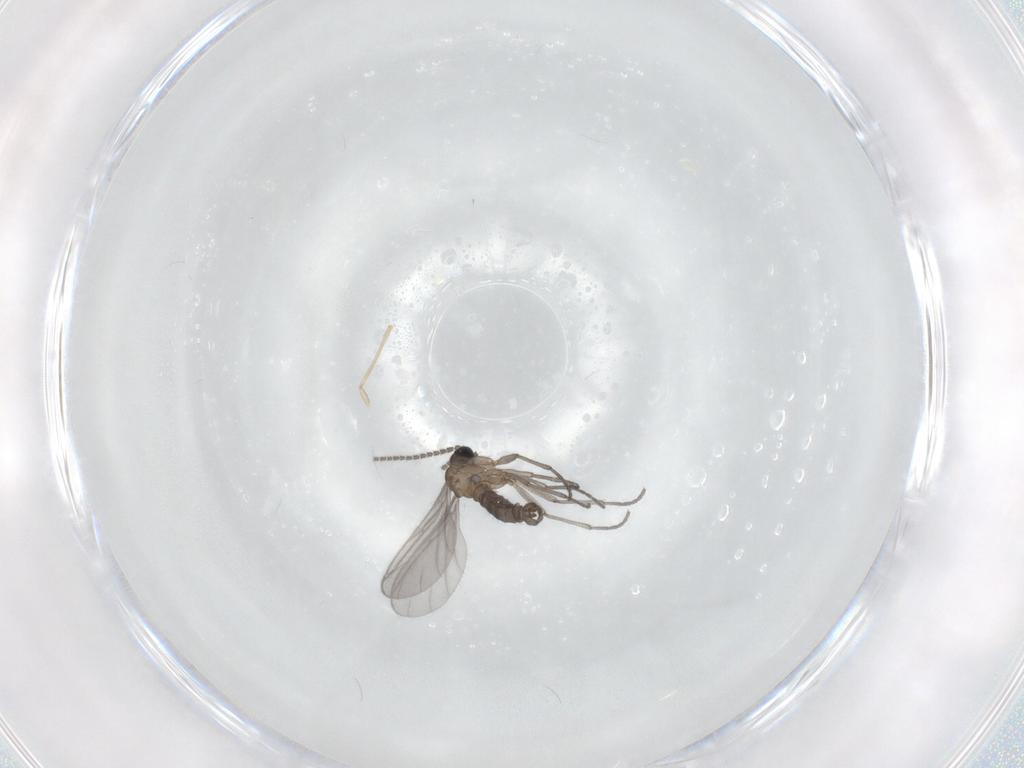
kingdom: Animalia
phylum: Arthropoda
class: Insecta
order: Diptera
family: Sciaridae
